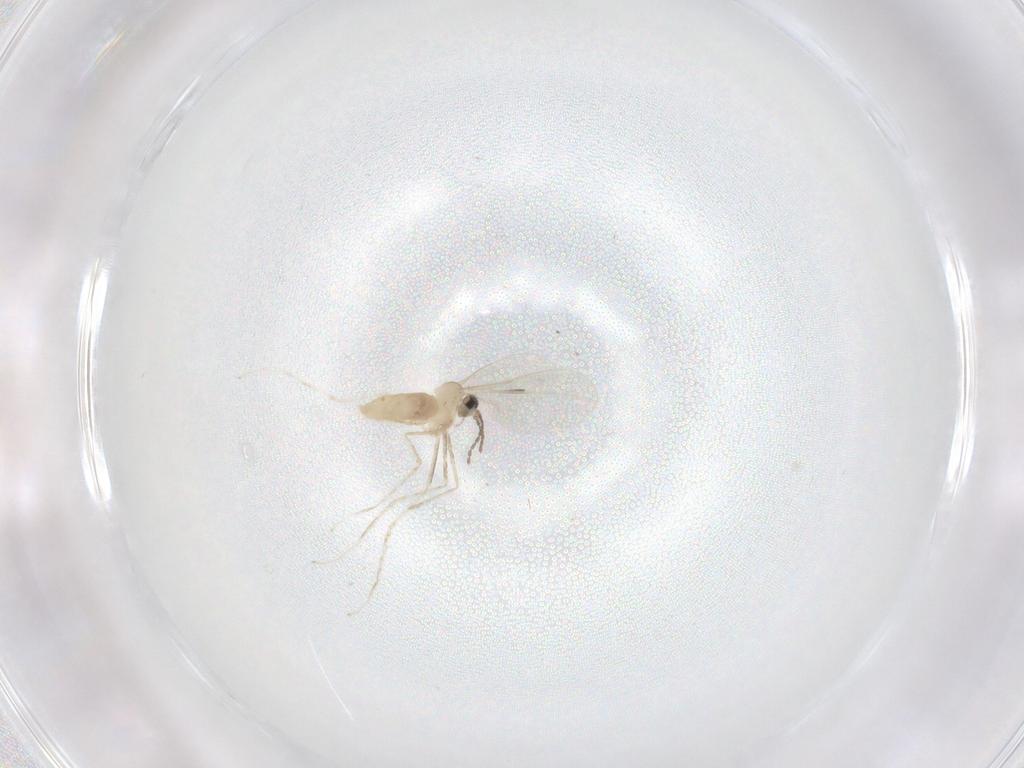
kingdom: Animalia
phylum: Arthropoda
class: Insecta
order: Diptera
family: Cecidomyiidae
